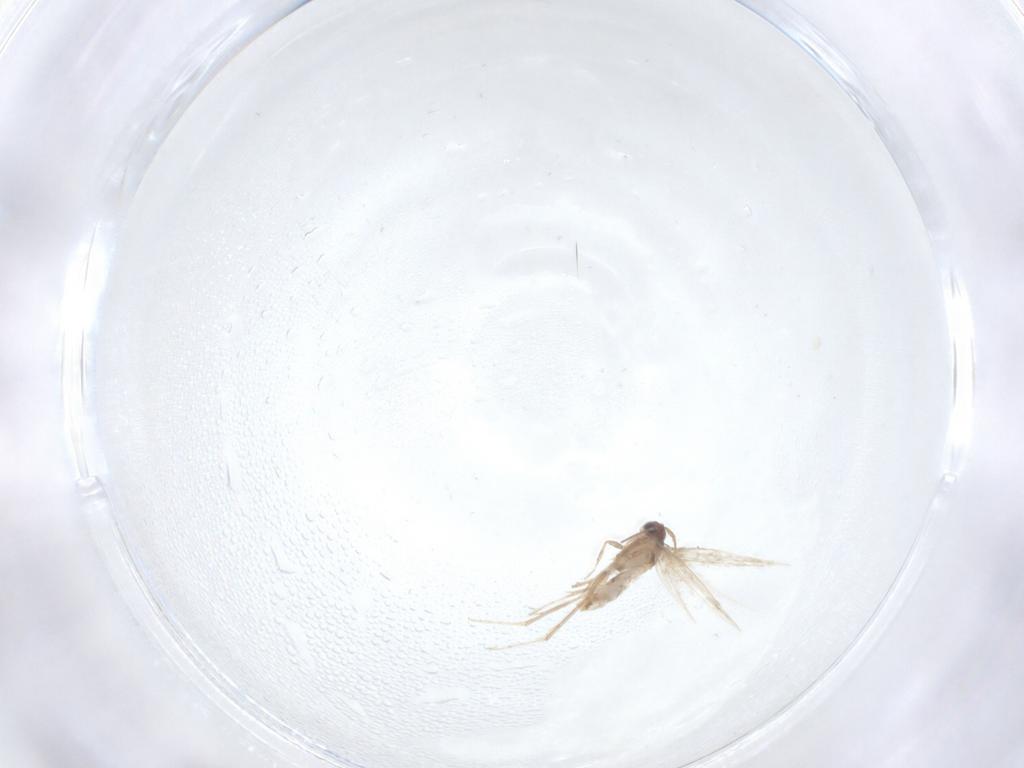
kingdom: Animalia
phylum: Arthropoda
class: Insecta
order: Lepidoptera
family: Nepticulidae
